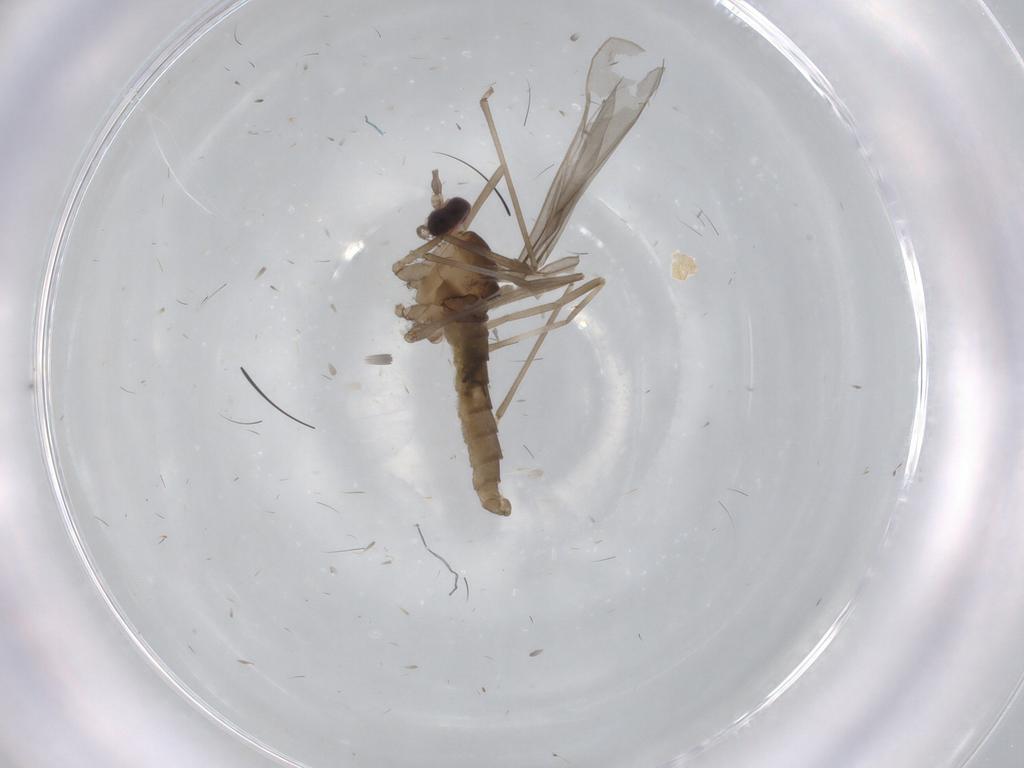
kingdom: Animalia
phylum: Arthropoda
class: Insecta
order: Diptera
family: Cecidomyiidae
